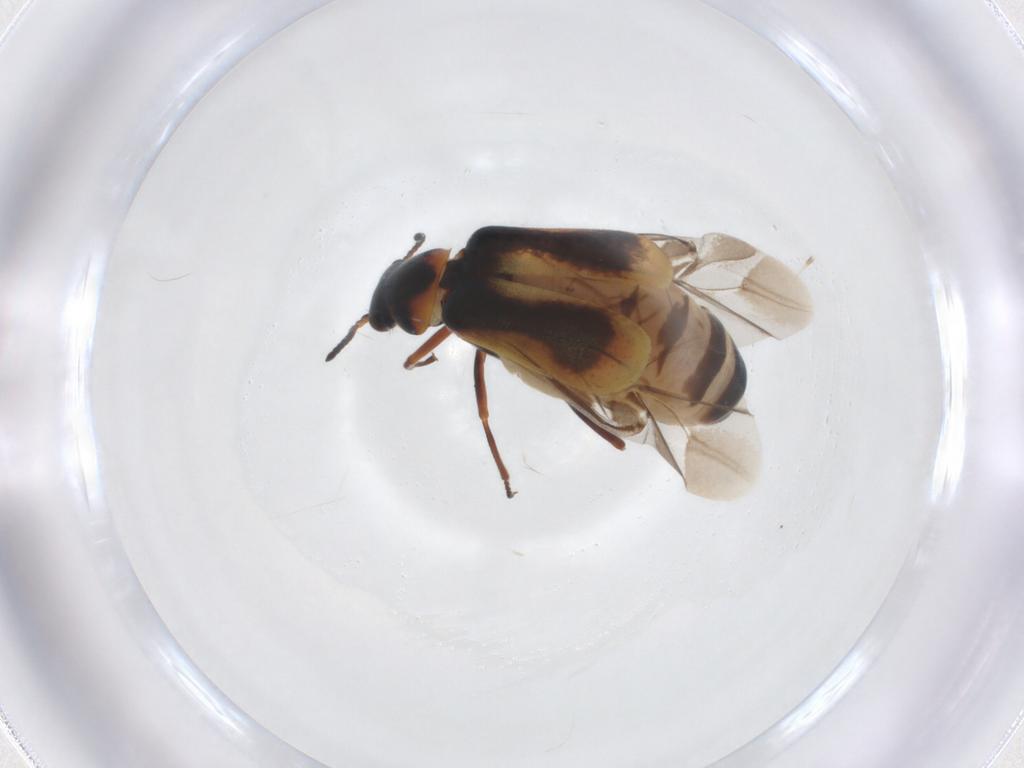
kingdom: Animalia
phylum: Arthropoda
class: Insecta
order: Coleoptera
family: Melyridae
